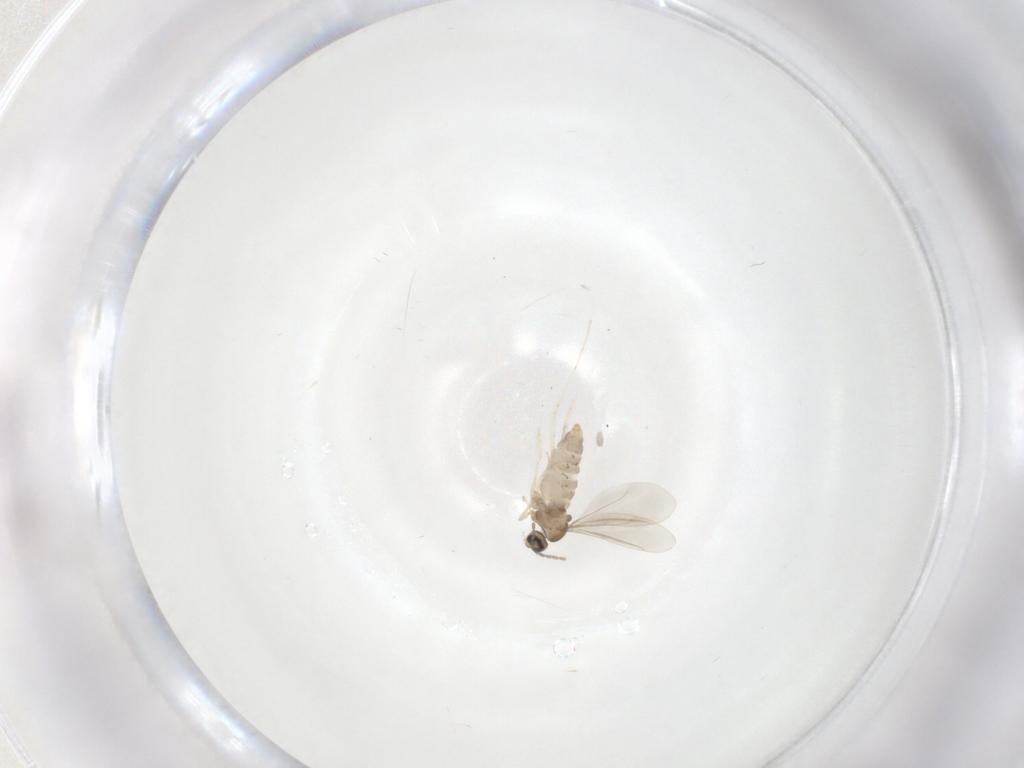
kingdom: Animalia
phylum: Arthropoda
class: Insecta
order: Diptera
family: Cecidomyiidae
